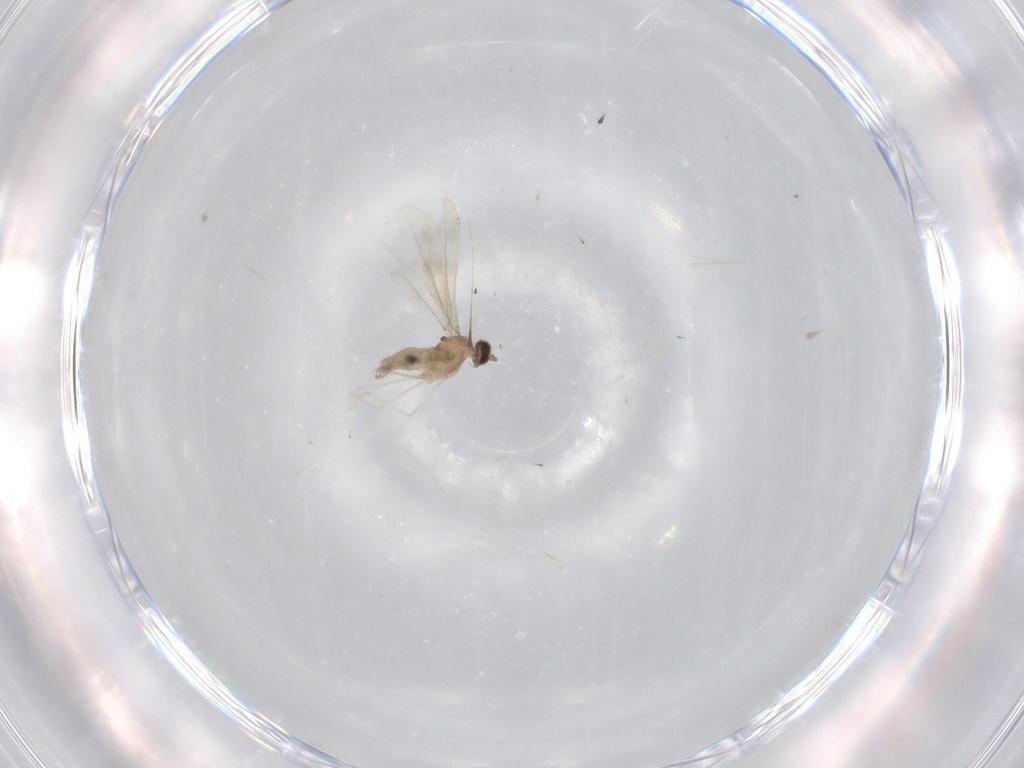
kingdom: Animalia
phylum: Arthropoda
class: Insecta
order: Diptera
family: Cecidomyiidae
